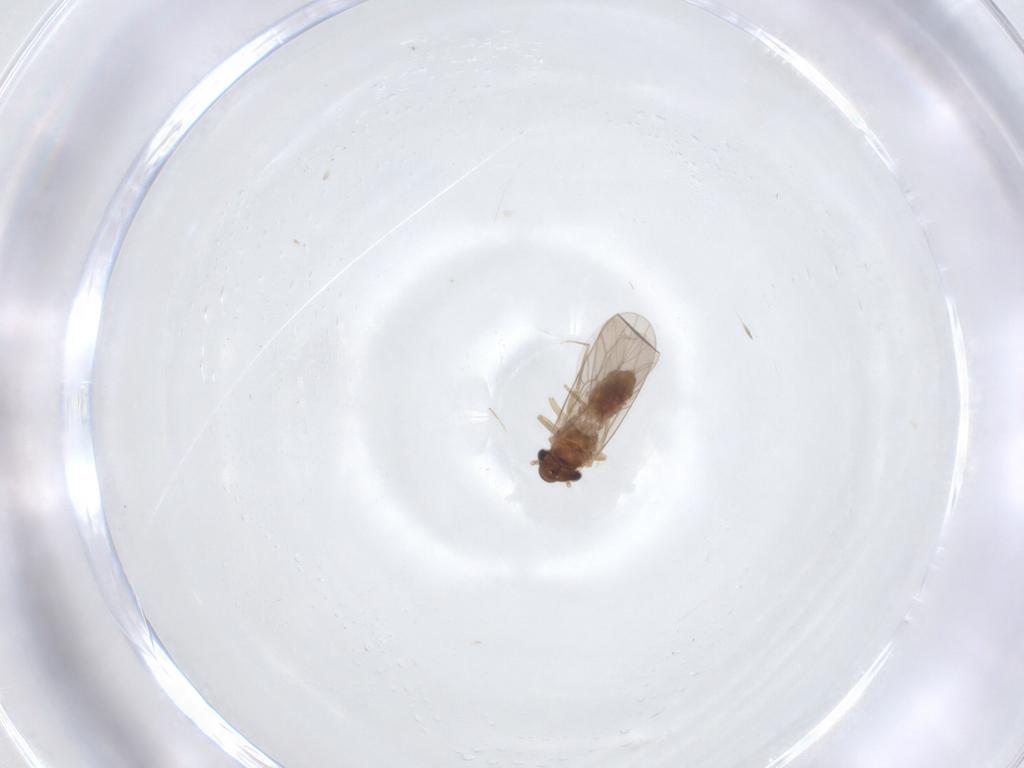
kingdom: Animalia
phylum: Arthropoda
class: Insecta
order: Psocodea
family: Lepidopsocidae
